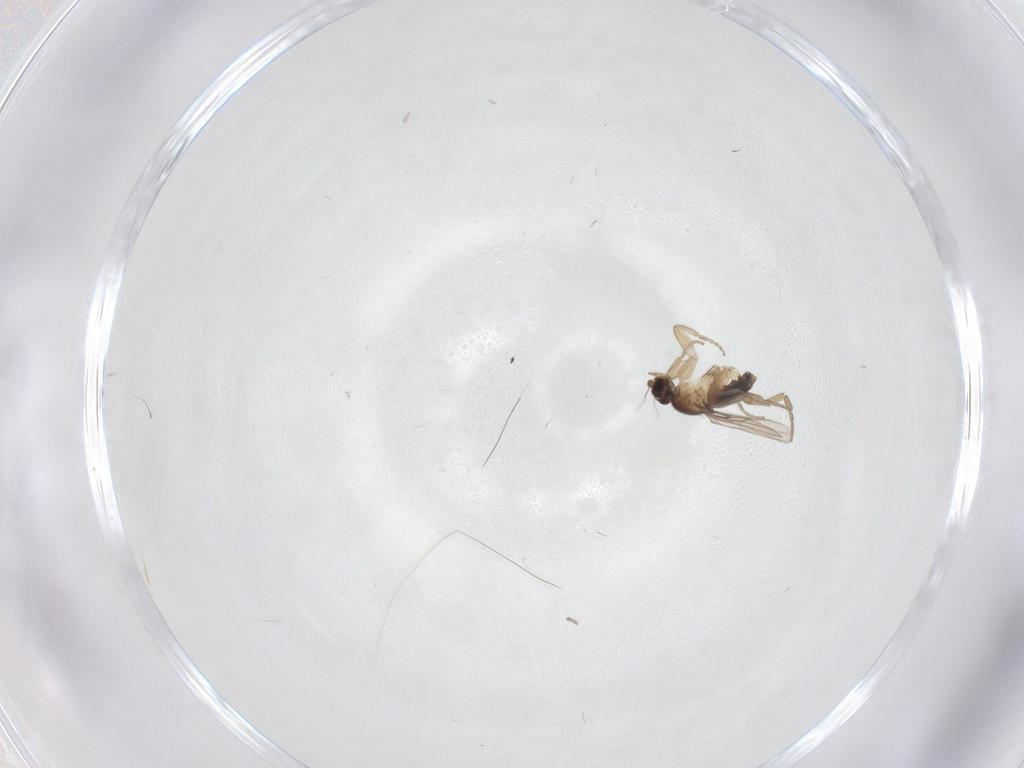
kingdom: Animalia
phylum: Arthropoda
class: Insecta
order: Diptera
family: Phoridae
